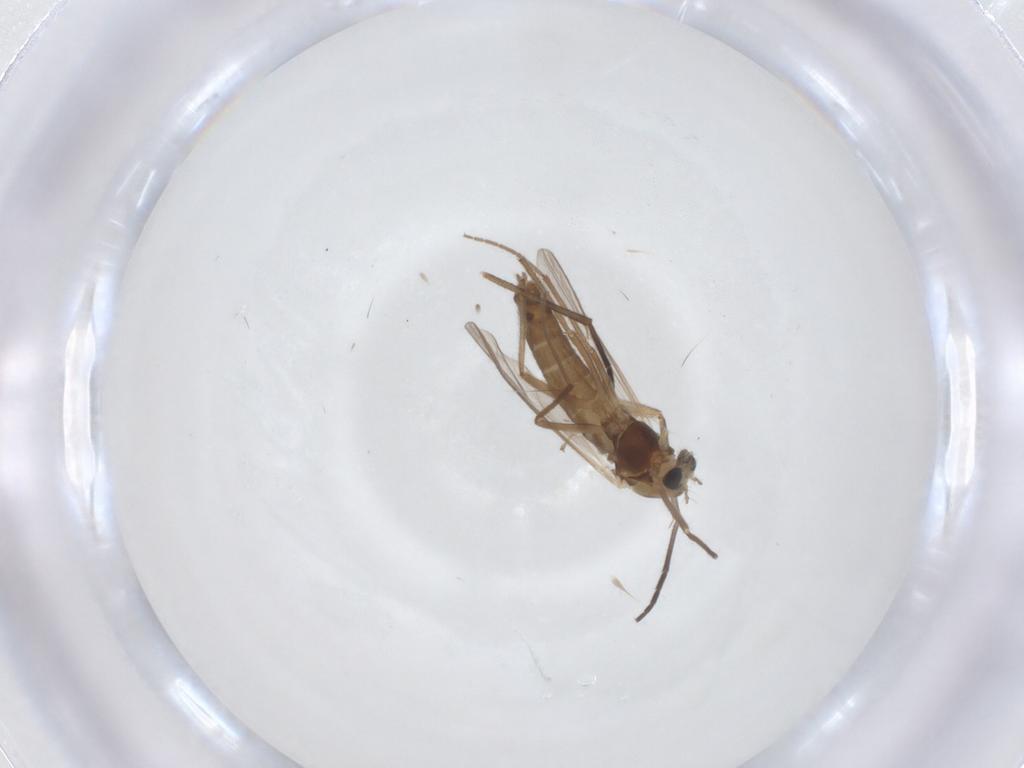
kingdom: Animalia
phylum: Arthropoda
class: Insecta
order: Diptera
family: Chironomidae
